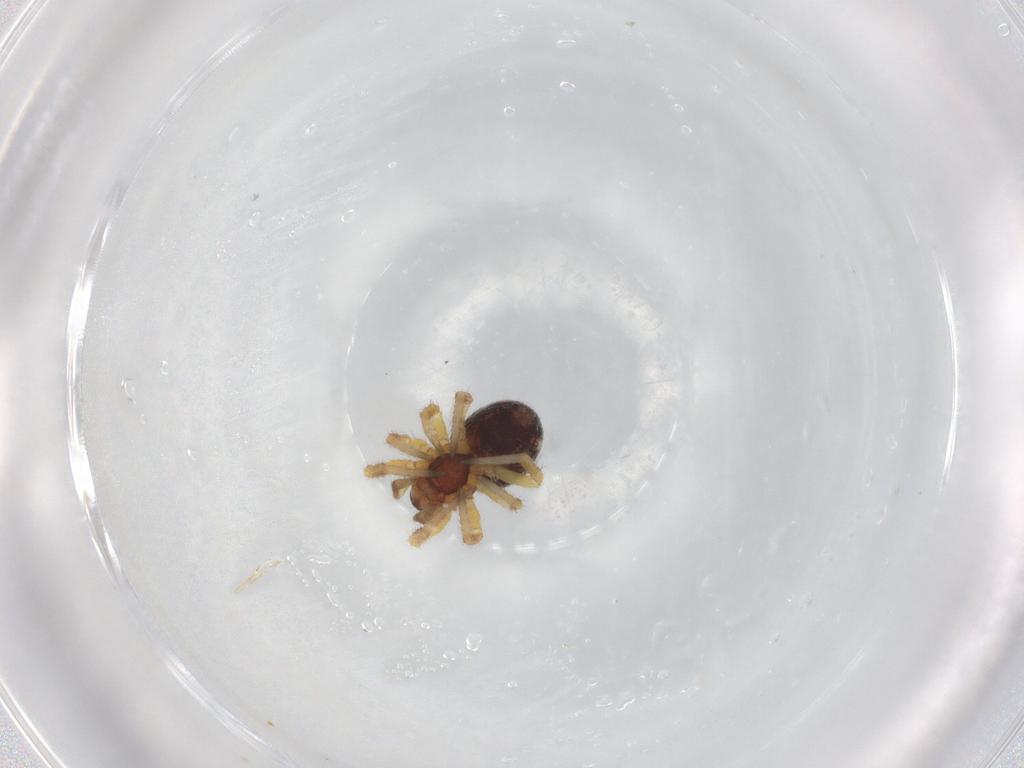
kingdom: Animalia
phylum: Arthropoda
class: Arachnida
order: Araneae
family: Theridiidae
